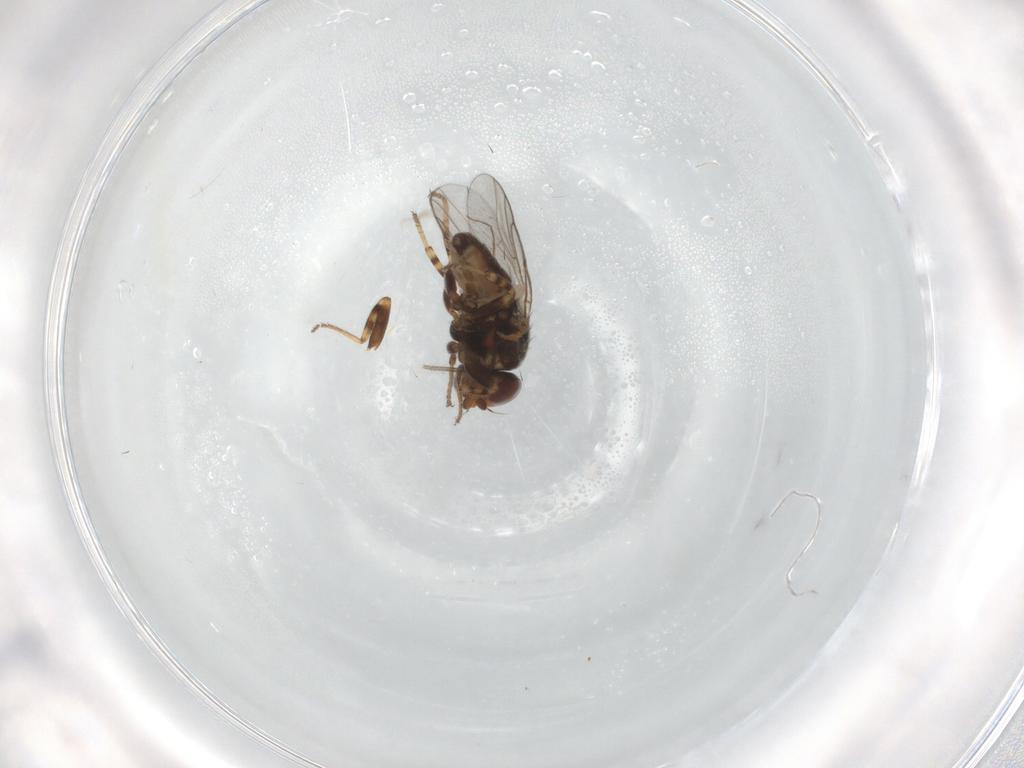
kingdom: Animalia
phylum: Arthropoda
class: Insecta
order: Diptera
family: Chloropidae
